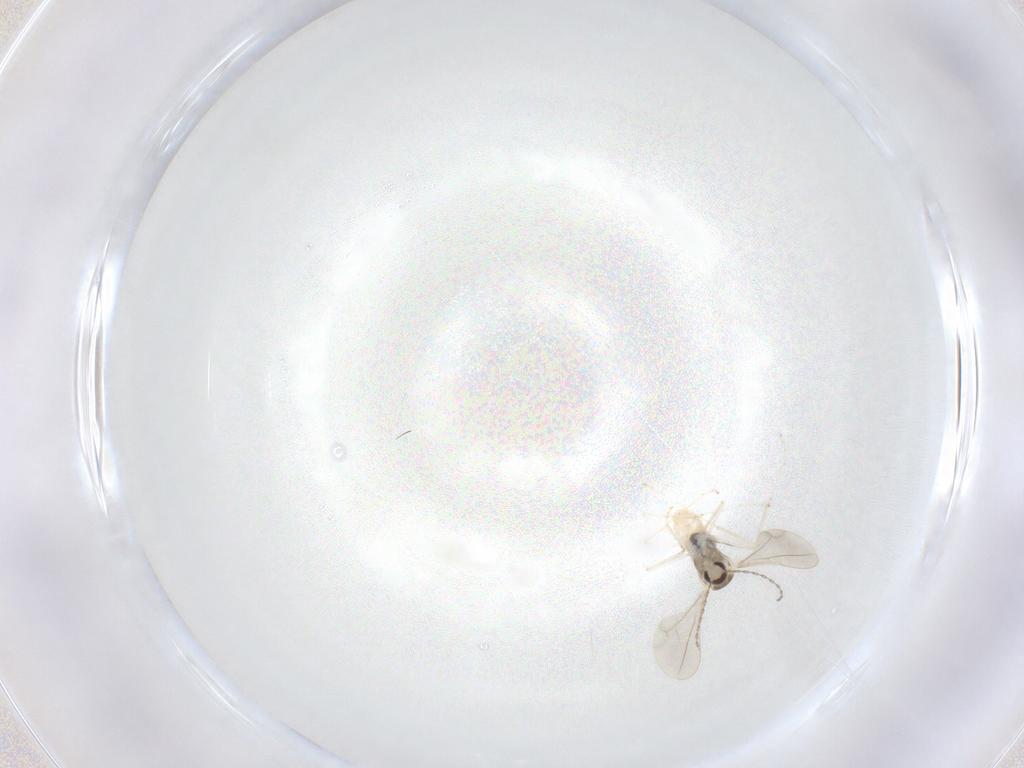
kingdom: Animalia
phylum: Arthropoda
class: Insecta
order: Diptera
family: Cecidomyiidae
